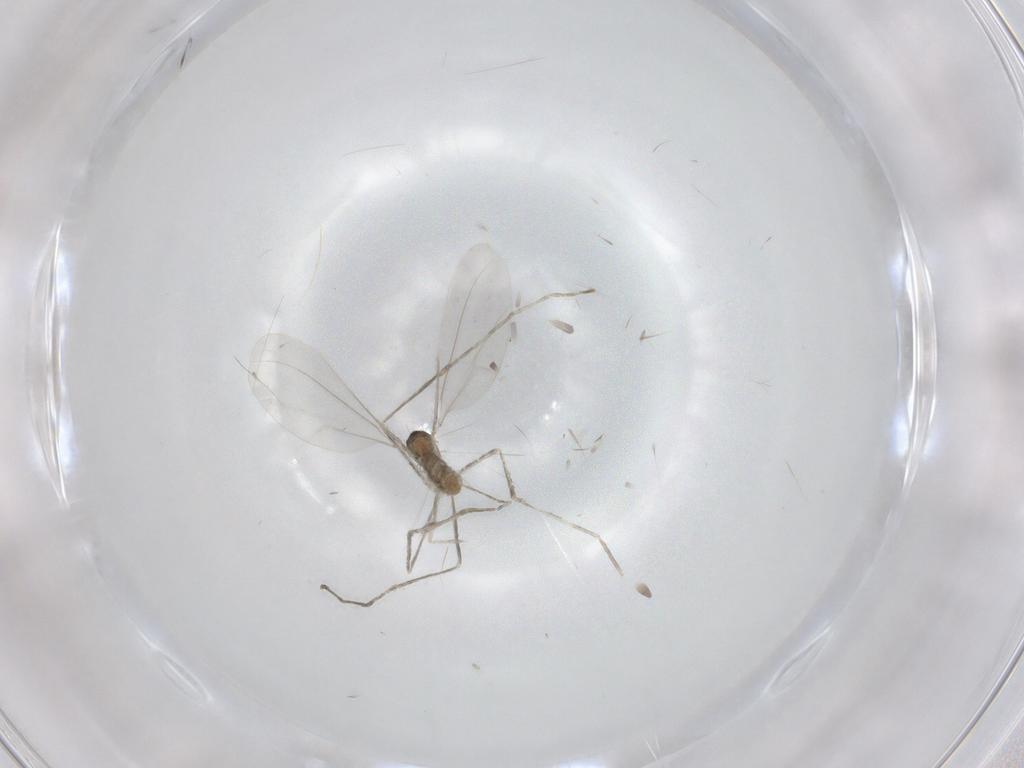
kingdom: Animalia
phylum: Arthropoda
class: Insecta
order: Diptera
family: Cecidomyiidae
